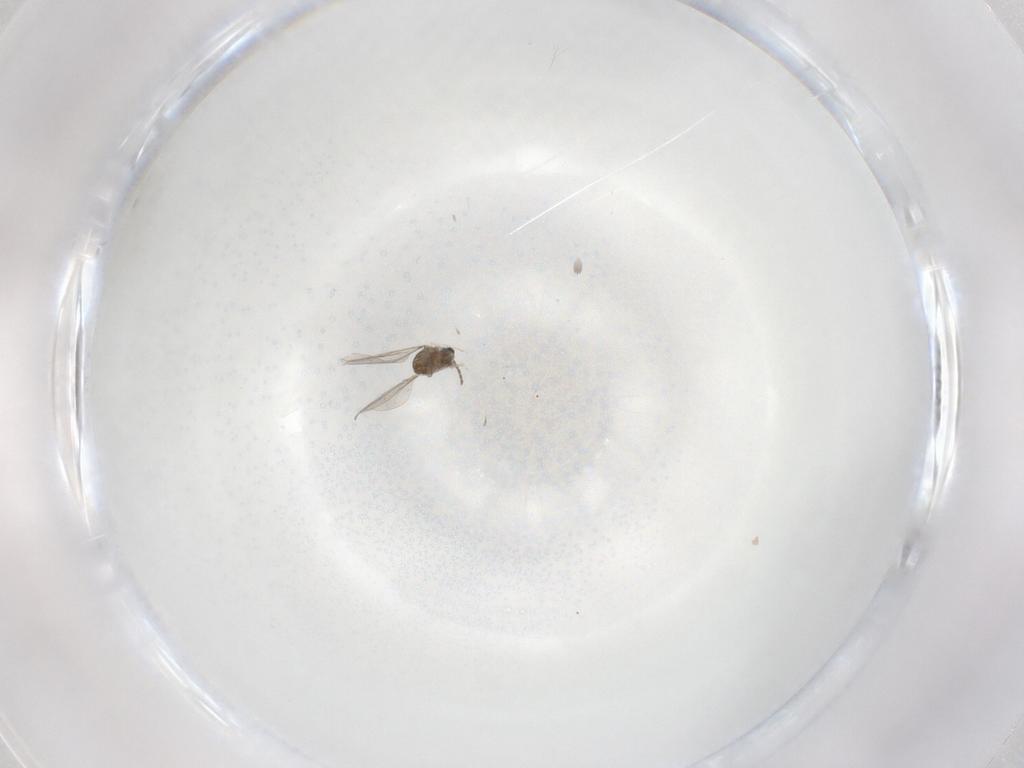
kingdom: Animalia
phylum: Arthropoda
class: Insecta
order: Diptera
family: Cecidomyiidae
